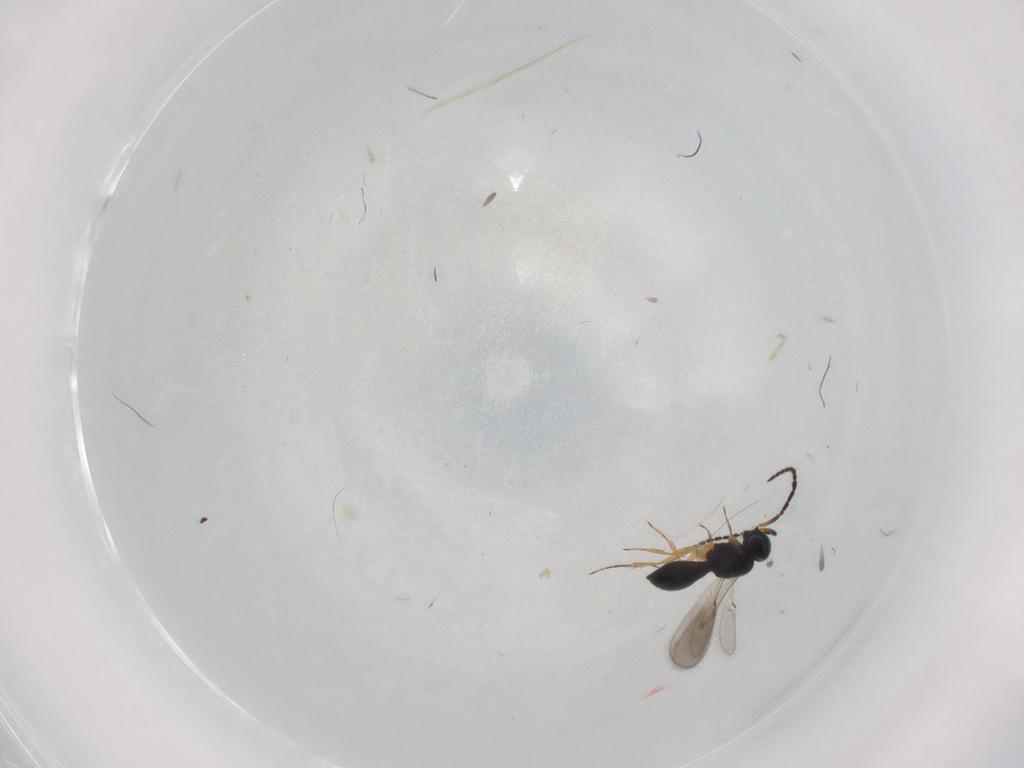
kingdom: Animalia
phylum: Arthropoda
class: Insecta
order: Hymenoptera
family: Scelionidae
